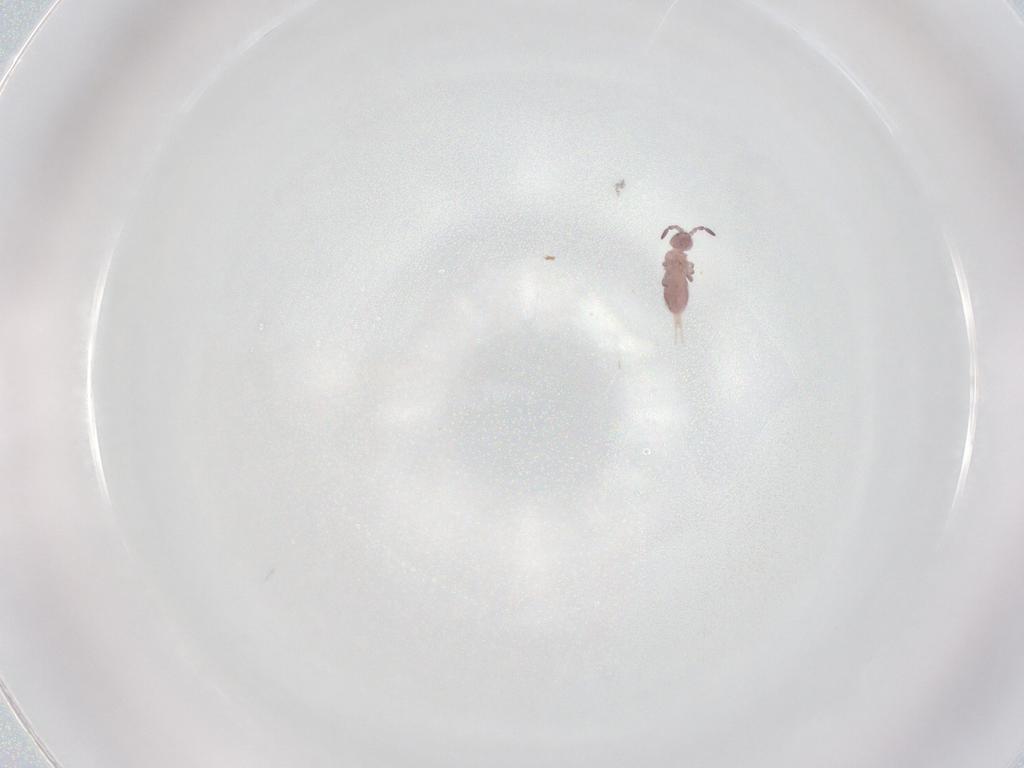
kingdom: Animalia
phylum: Arthropoda
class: Collembola
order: Entomobryomorpha
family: Isotomidae
